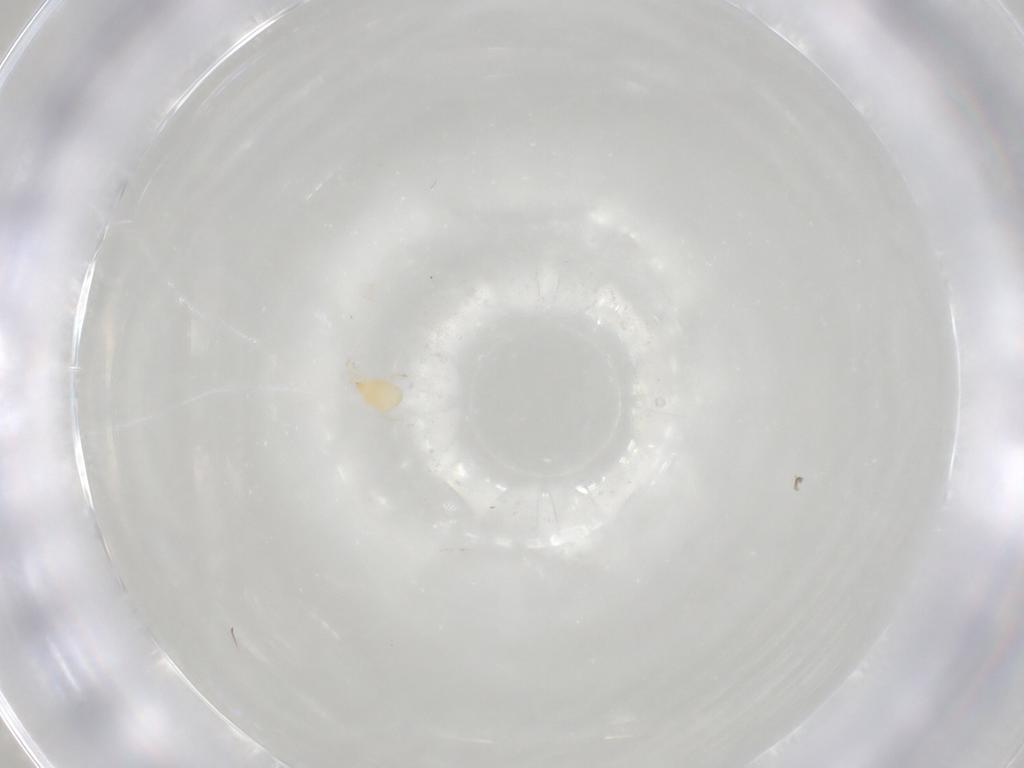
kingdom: Animalia
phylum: Arthropoda
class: Arachnida
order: Mesostigmata
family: Phytoseiidae
